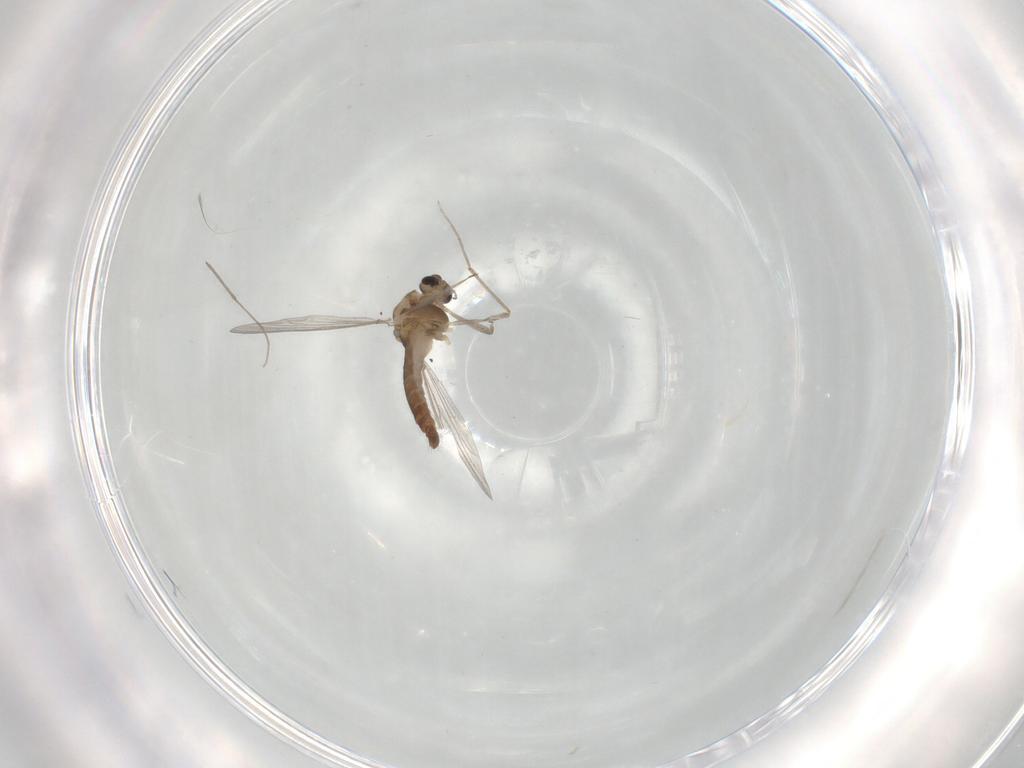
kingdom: Animalia
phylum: Arthropoda
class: Insecta
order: Diptera
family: Chironomidae
